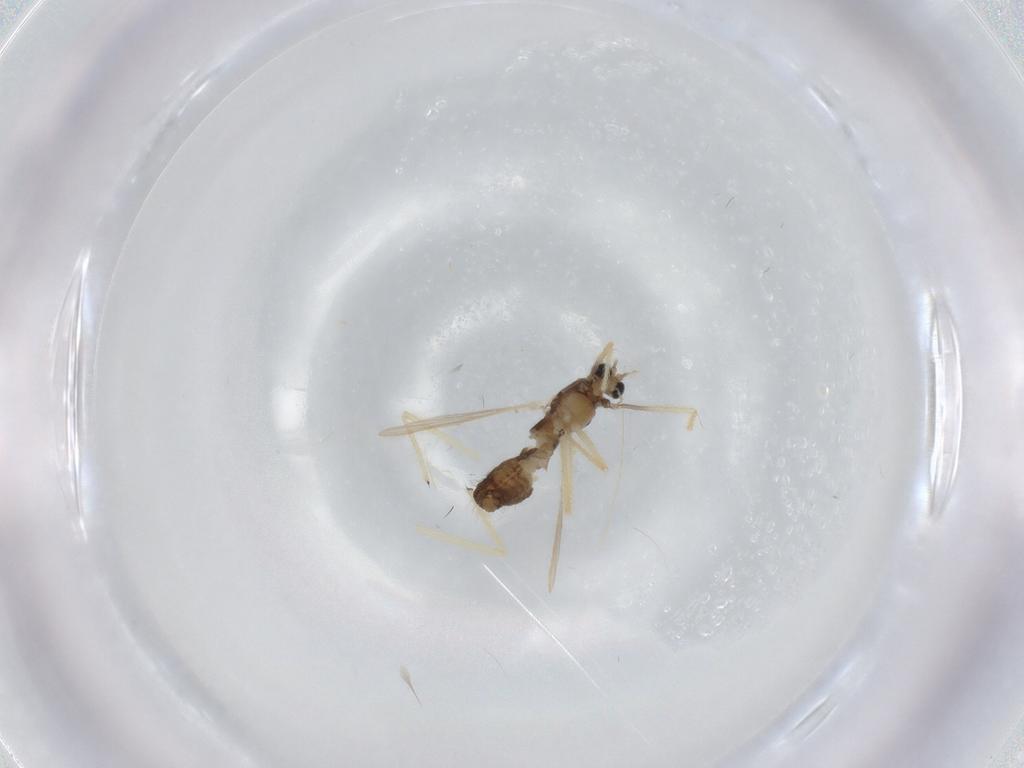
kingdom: Animalia
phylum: Arthropoda
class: Insecta
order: Diptera
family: Chironomidae
